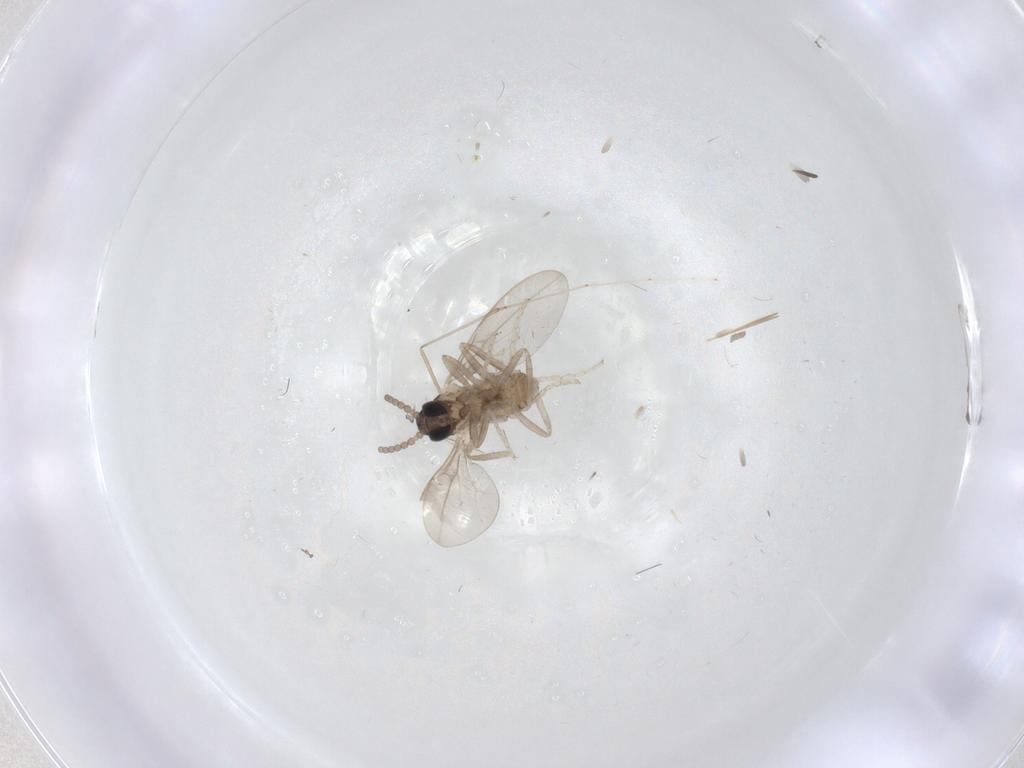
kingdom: Animalia
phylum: Arthropoda
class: Insecta
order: Diptera
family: Cecidomyiidae
